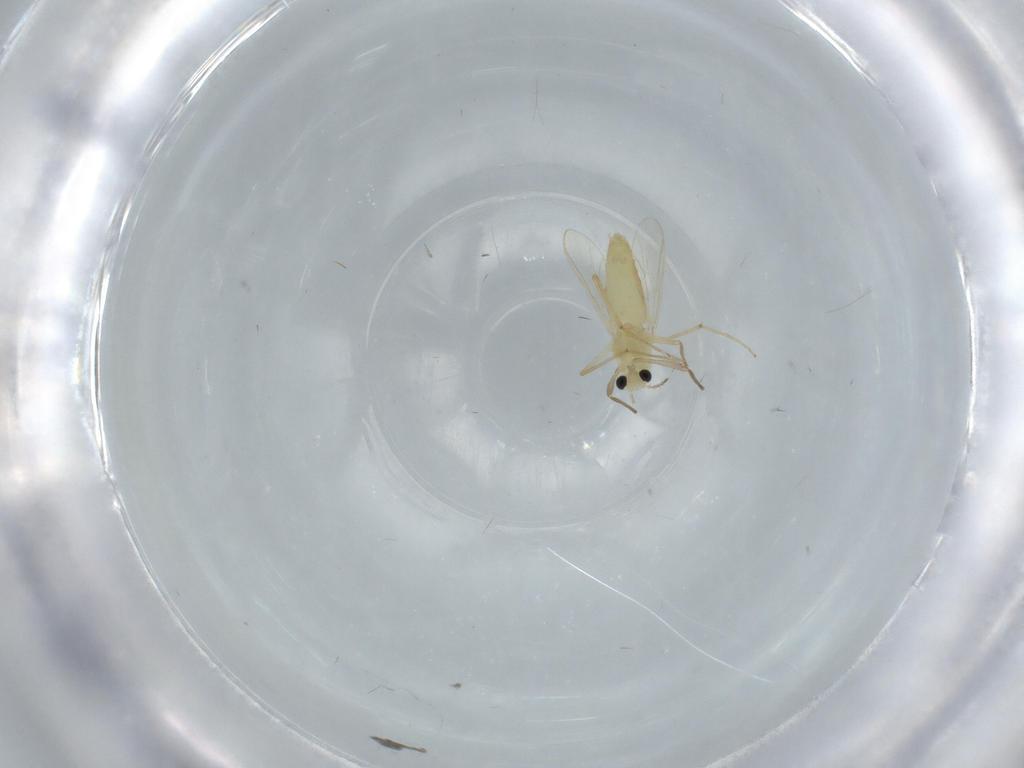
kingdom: Animalia
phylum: Arthropoda
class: Insecta
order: Diptera
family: Chironomidae
